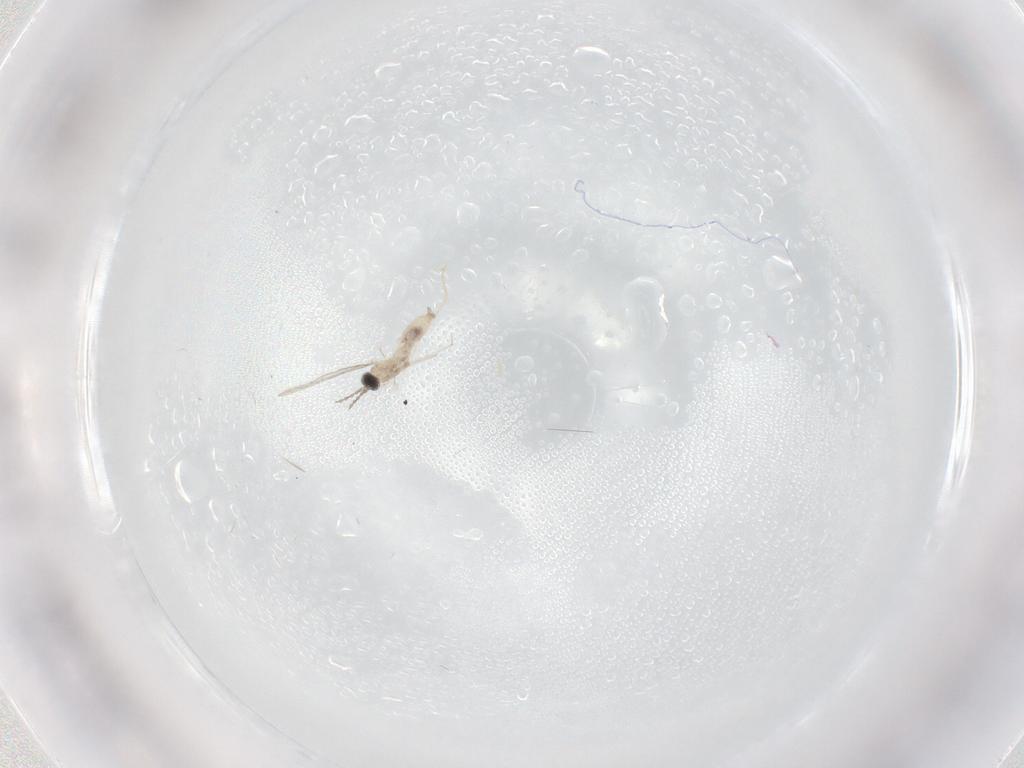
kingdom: Animalia
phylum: Arthropoda
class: Insecta
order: Diptera
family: Cecidomyiidae
